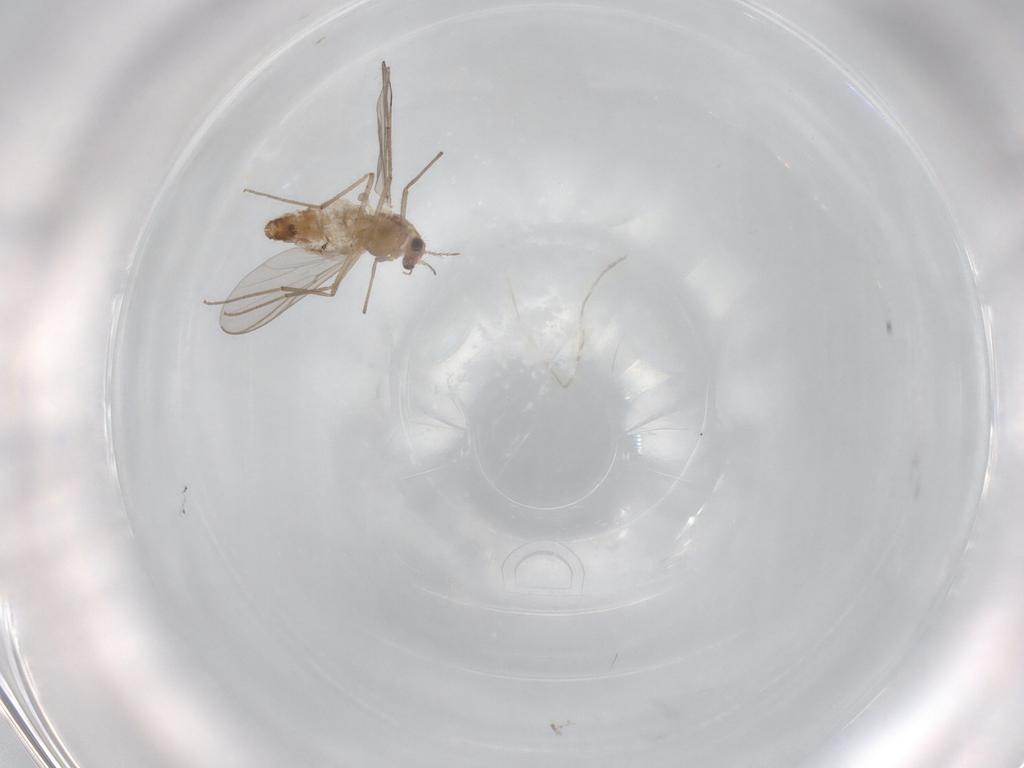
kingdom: Animalia
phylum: Arthropoda
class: Insecta
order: Diptera
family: Chironomidae
